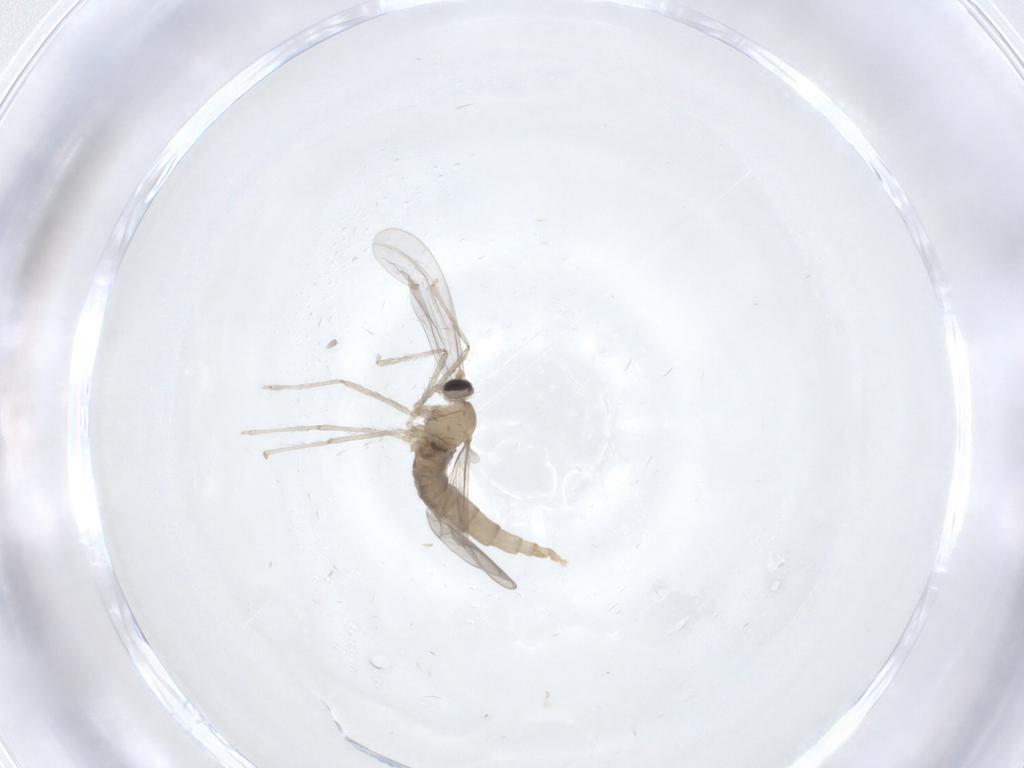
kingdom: Animalia
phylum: Arthropoda
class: Insecta
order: Diptera
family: Cecidomyiidae
